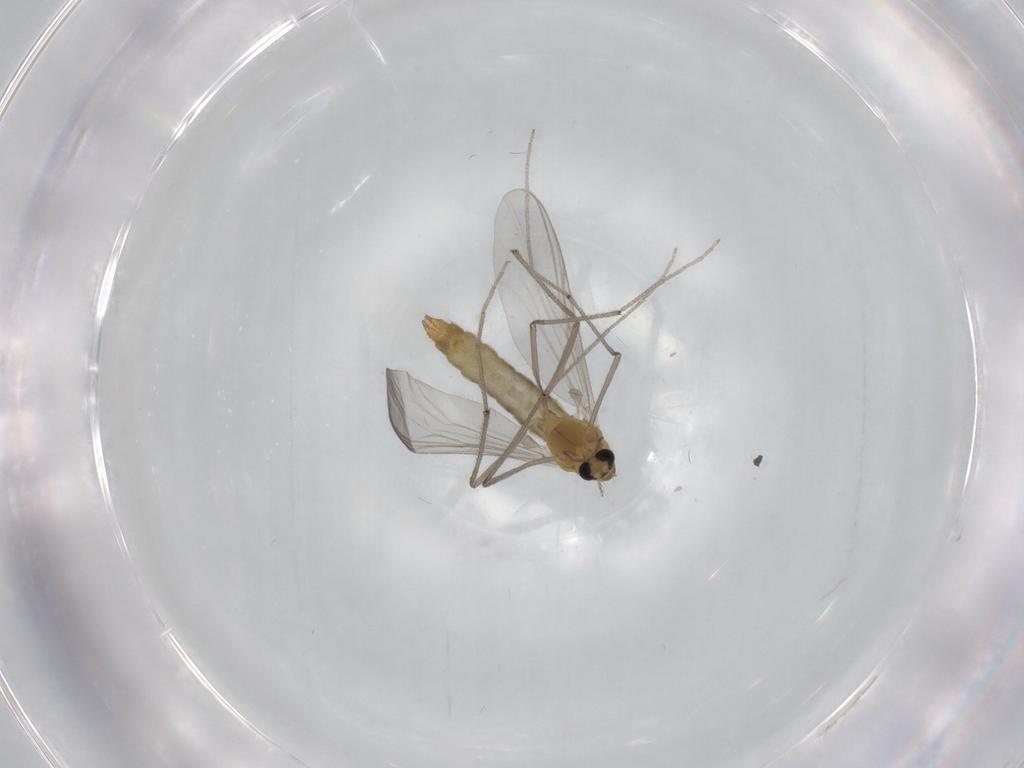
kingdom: Animalia
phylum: Arthropoda
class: Insecta
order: Diptera
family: Chironomidae
